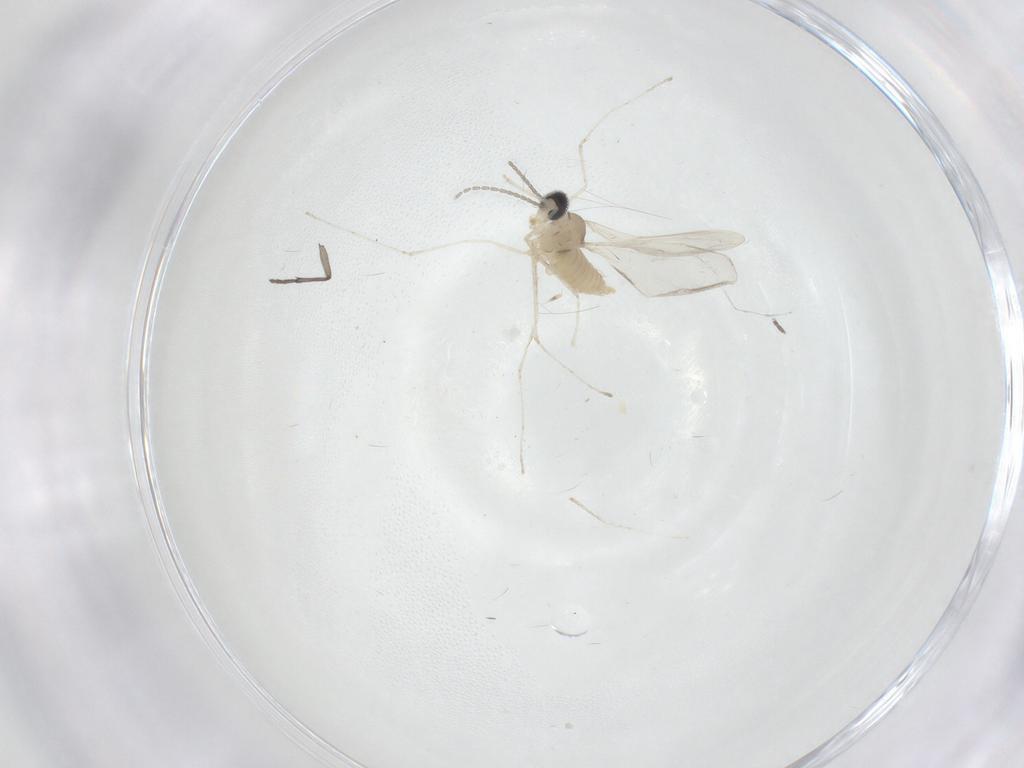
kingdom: Animalia
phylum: Arthropoda
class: Insecta
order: Diptera
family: Cecidomyiidae
